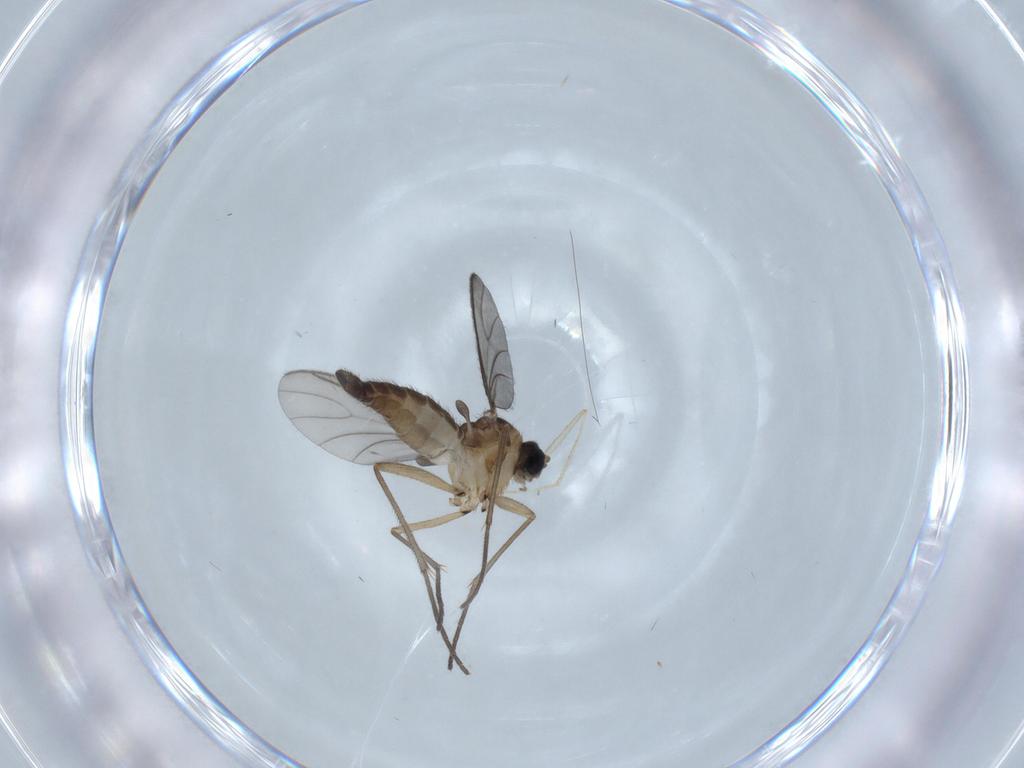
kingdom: Animalia
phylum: Arthropoda
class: Insecta
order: Diptera
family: Sciaridae
